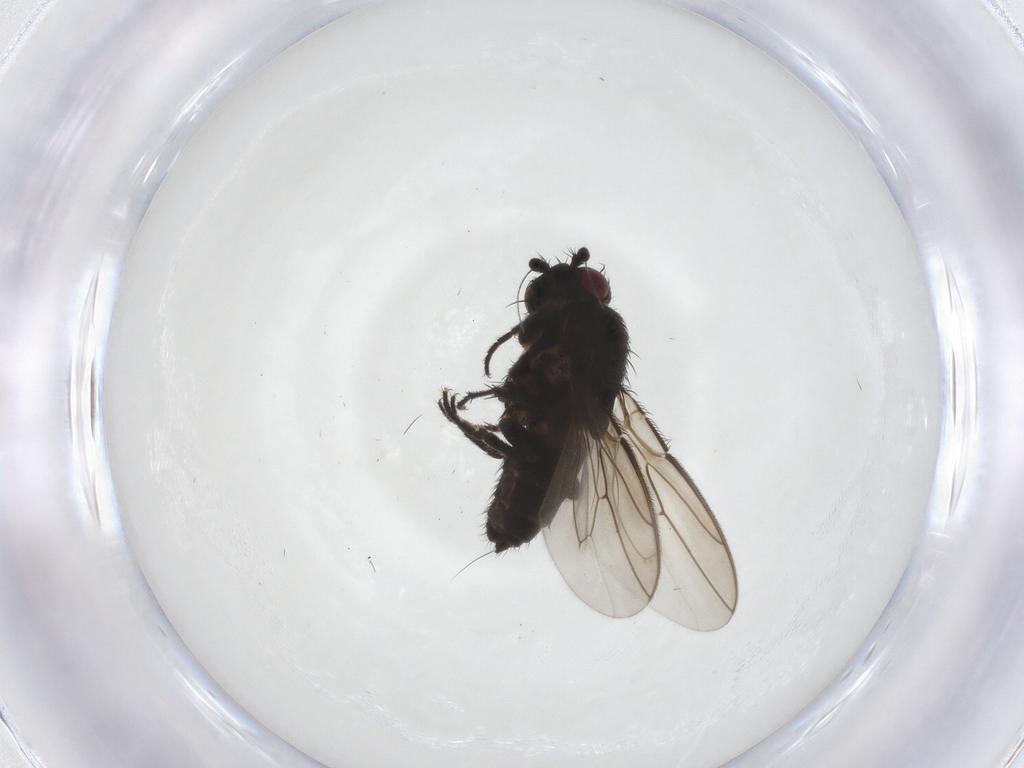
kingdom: Animalia
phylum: Arthropoda
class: Insecta
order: Diptera
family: Sphaeroceridae
